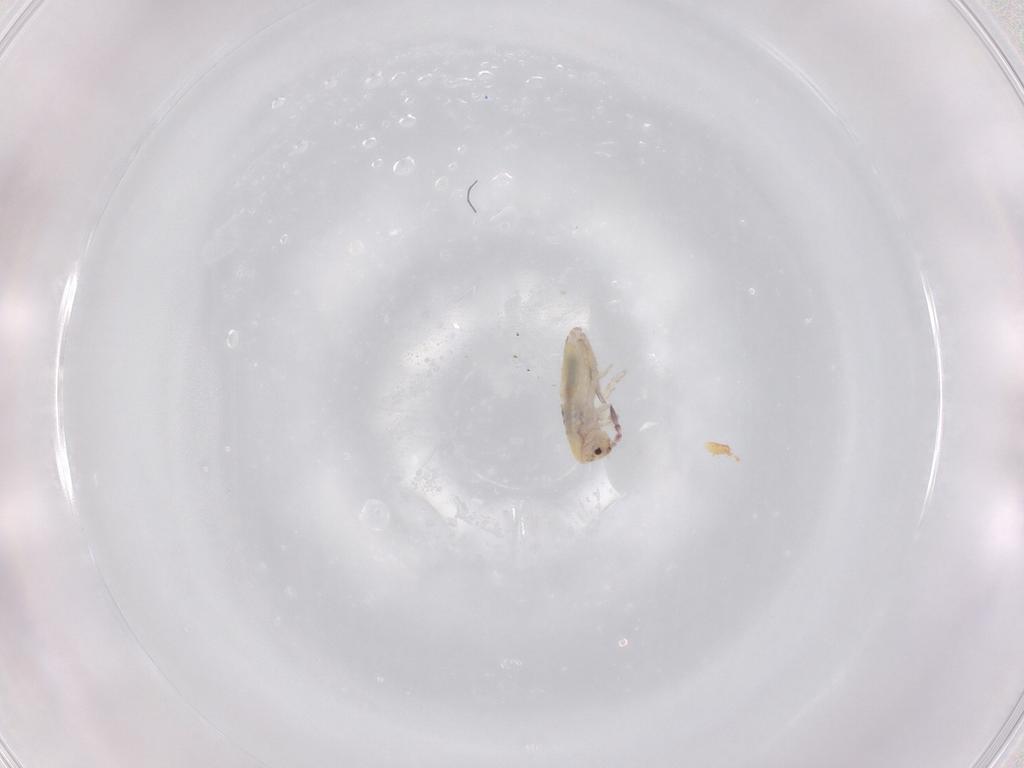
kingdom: Animalia
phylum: Arthropoda
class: Collembola
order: Entomobryomorpha
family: Entomobryidae
